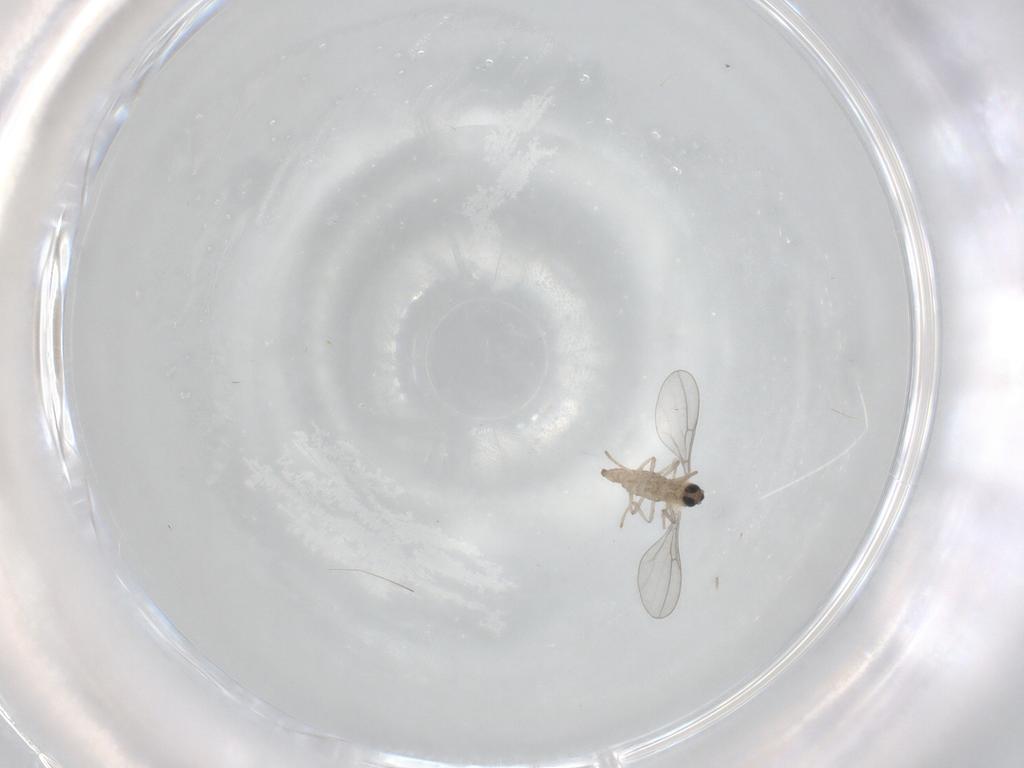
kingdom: Animalia
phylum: Arthropoda
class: Insecta
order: Diptera
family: Cecidomyiidae
